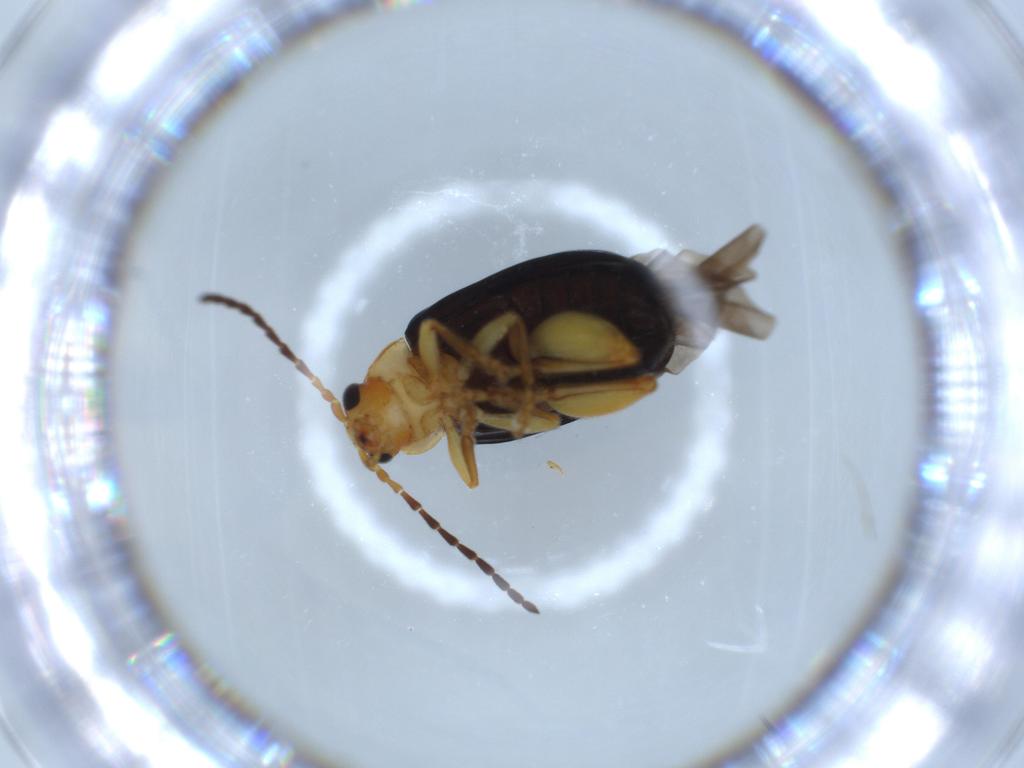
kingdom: Animalia
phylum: Arthropoda
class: Insecta
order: Coleoptera
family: Chrysomelidae
